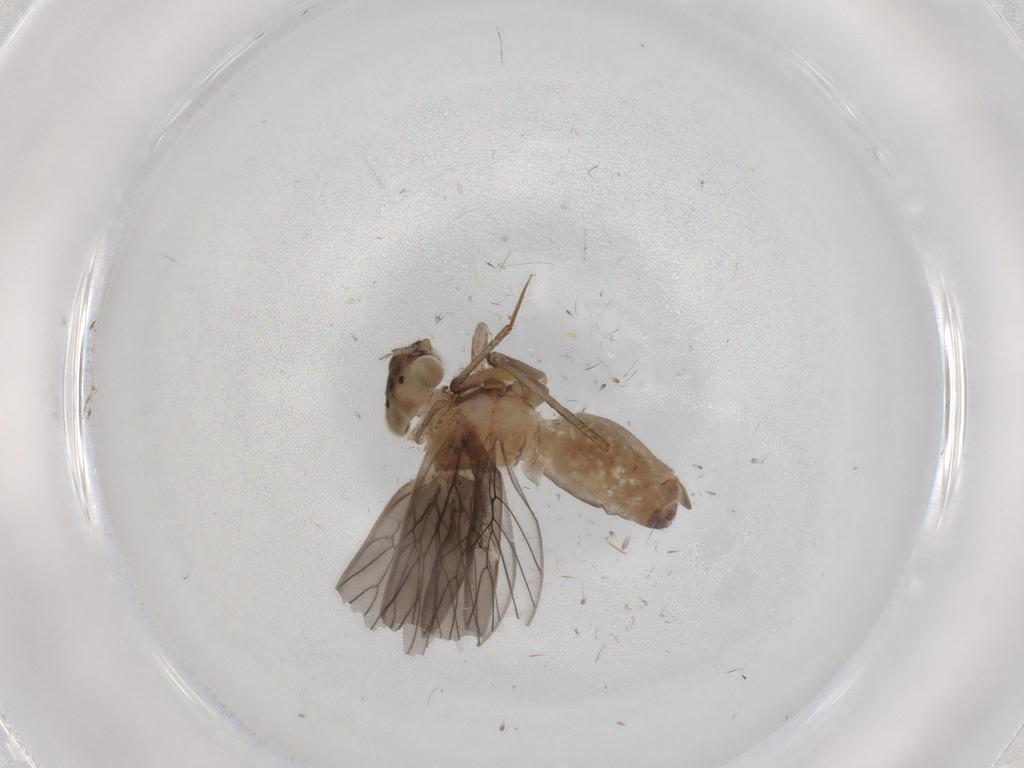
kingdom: Animalia
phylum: Arthropoda
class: Insecta
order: Psocodea
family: Lepidopsocidae
